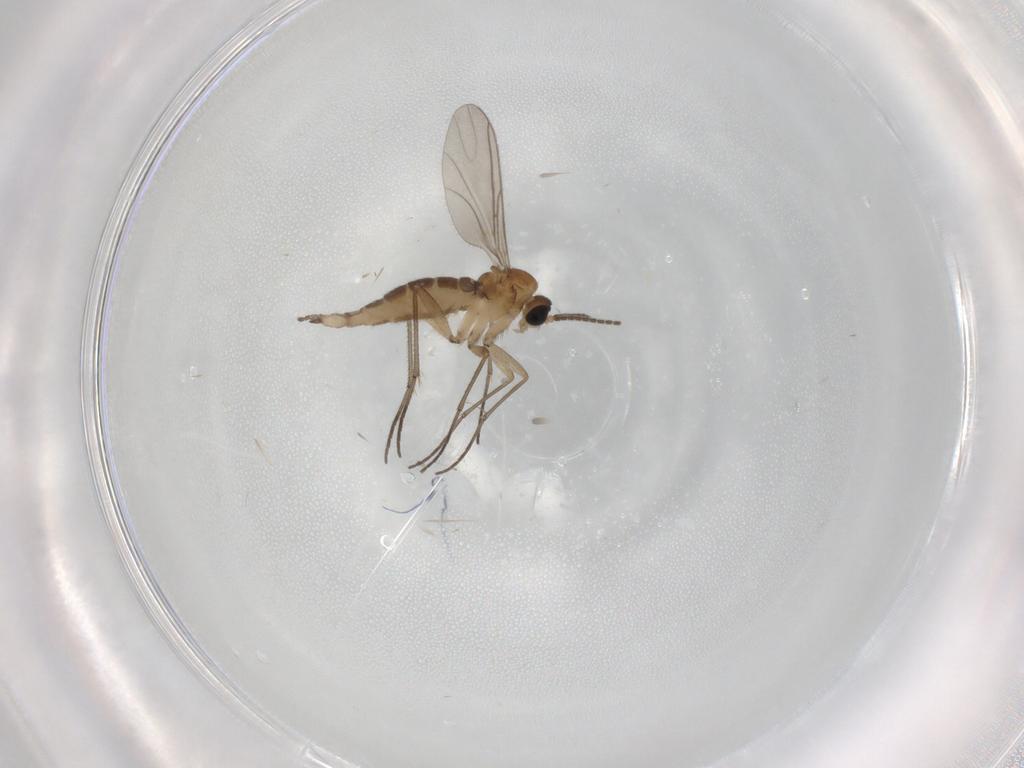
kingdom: Animalia
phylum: Arthropoda
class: Insecta
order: Diptera
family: Sciaridae
